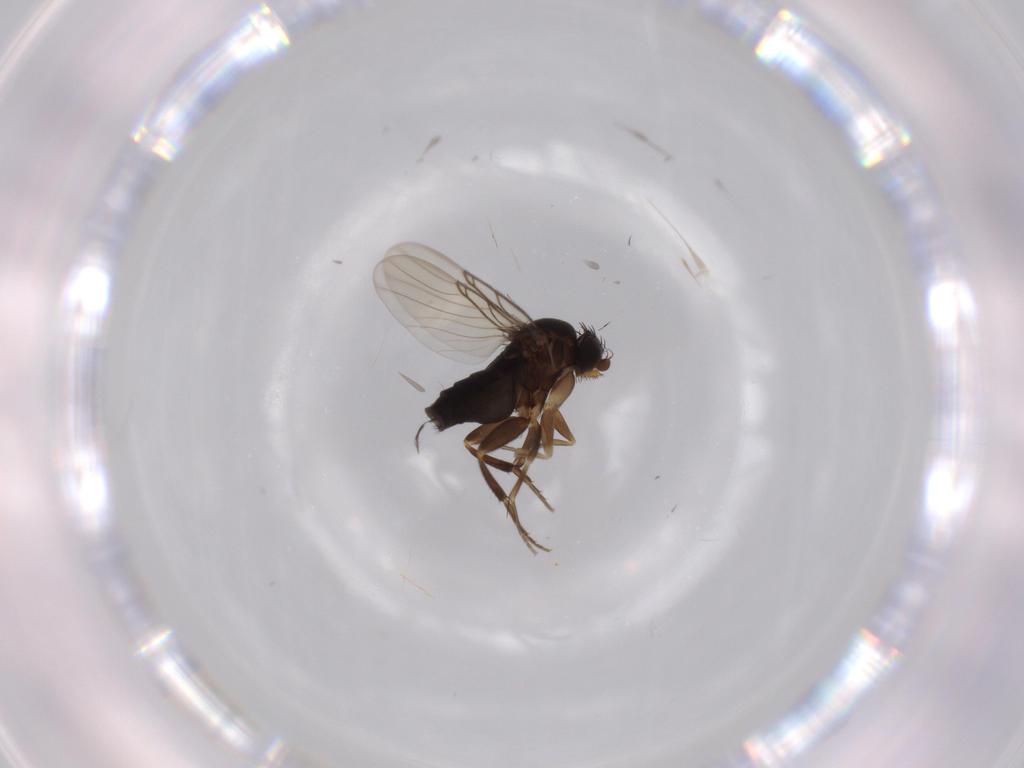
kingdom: Animalia
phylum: Arthropoda
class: Insecta
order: Diptera
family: Phoridae
